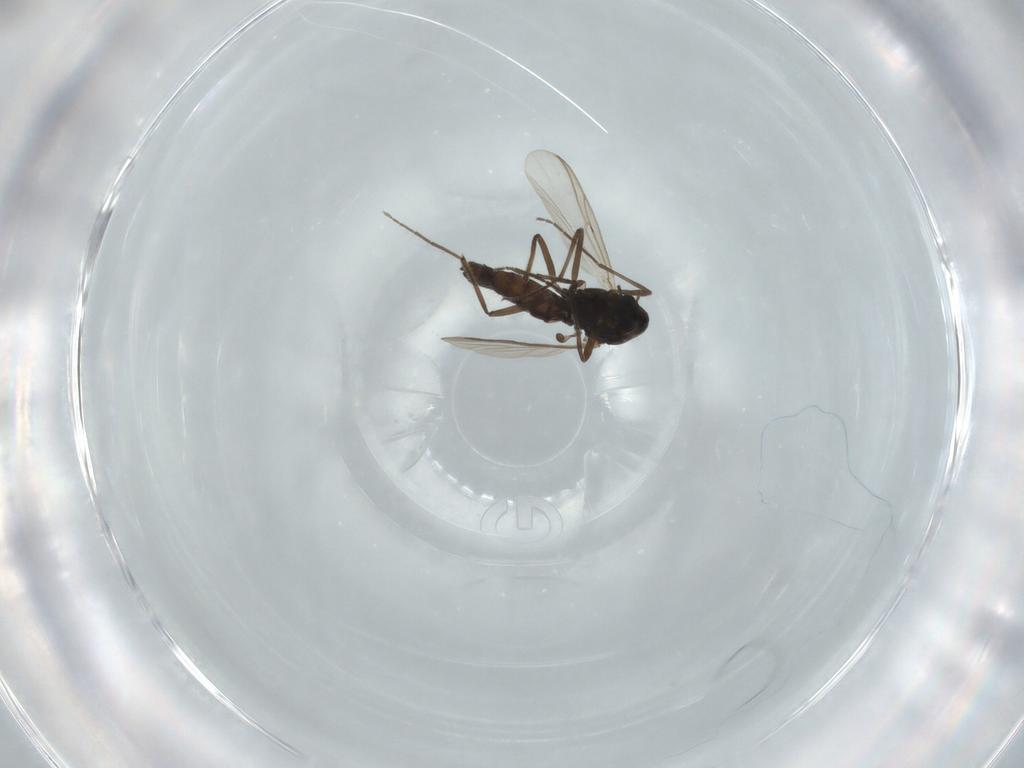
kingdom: Animalia
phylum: Arthropoda
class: Insecta
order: Diptera
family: Chironomidae
